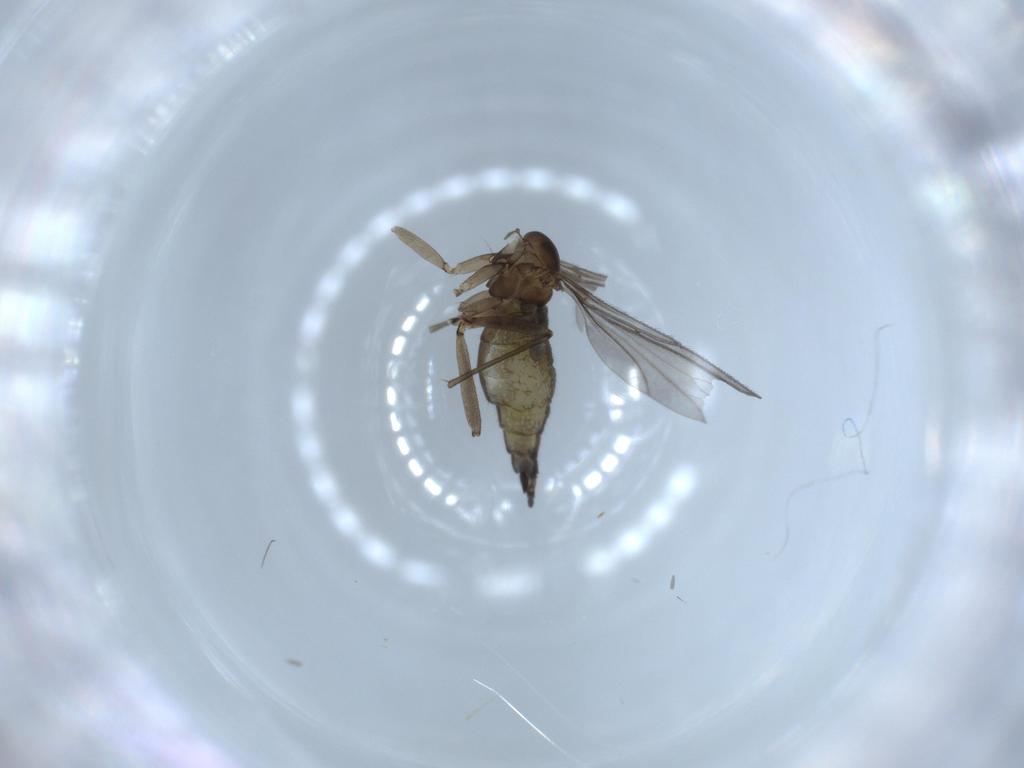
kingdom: Animalia
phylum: Arthropoda
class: Insecta
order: Diptera
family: Sciaridae
